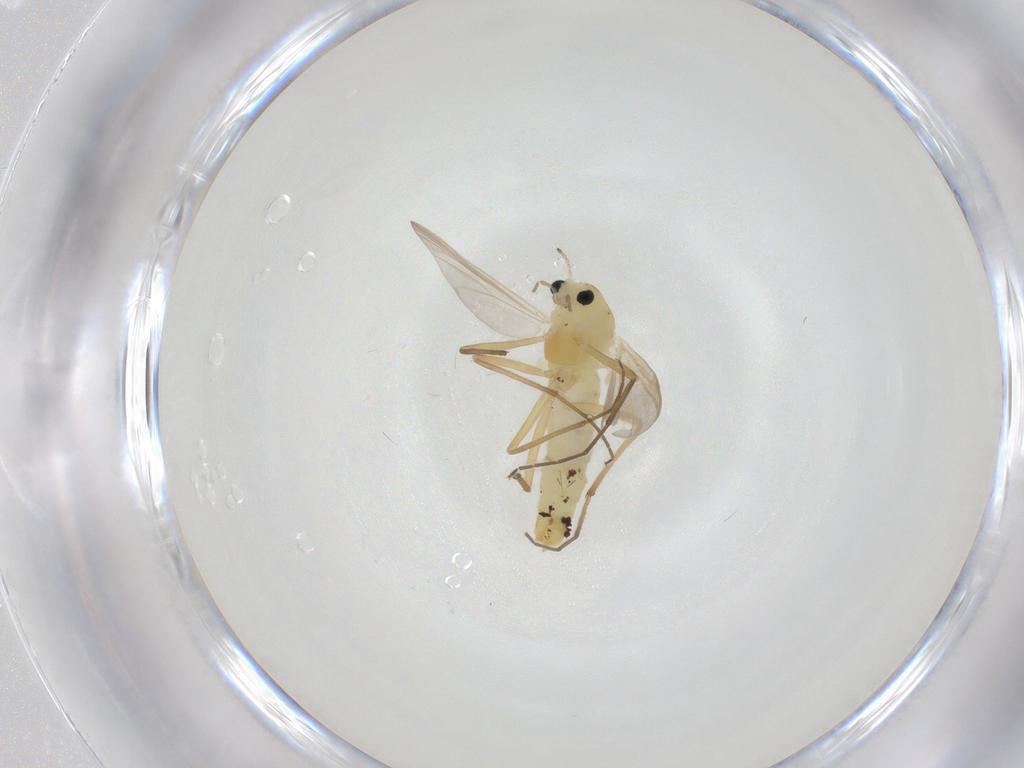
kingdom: Animalia
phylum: Arthropoda
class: Insecta
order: Diptera
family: Chironomidae
